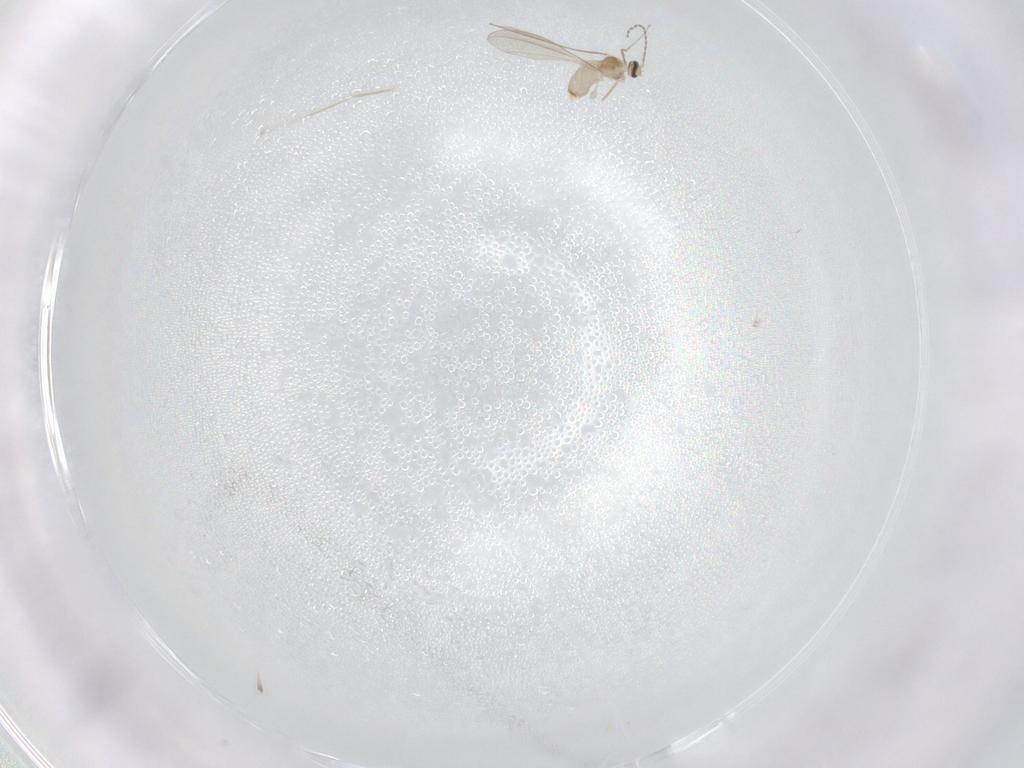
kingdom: Animalia
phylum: Arthropoda
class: Insecta
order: Diptera
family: Cecidomyiidae
